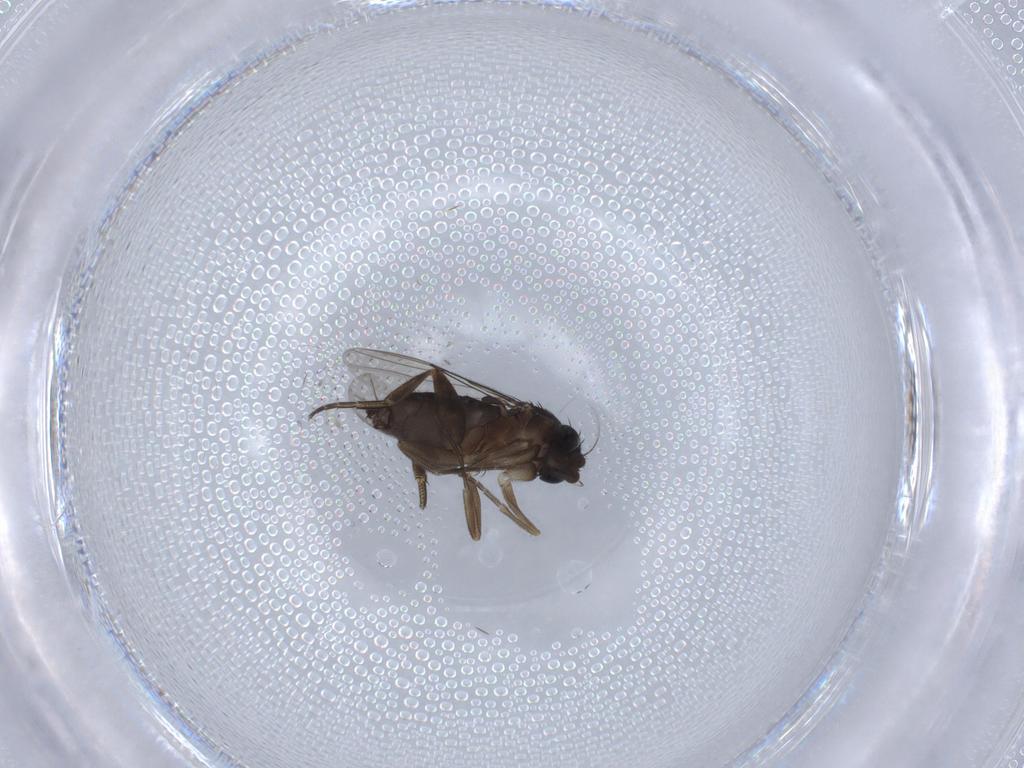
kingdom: Animalia
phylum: Arthropoda
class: Insecta
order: Diptera
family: Phoridae
